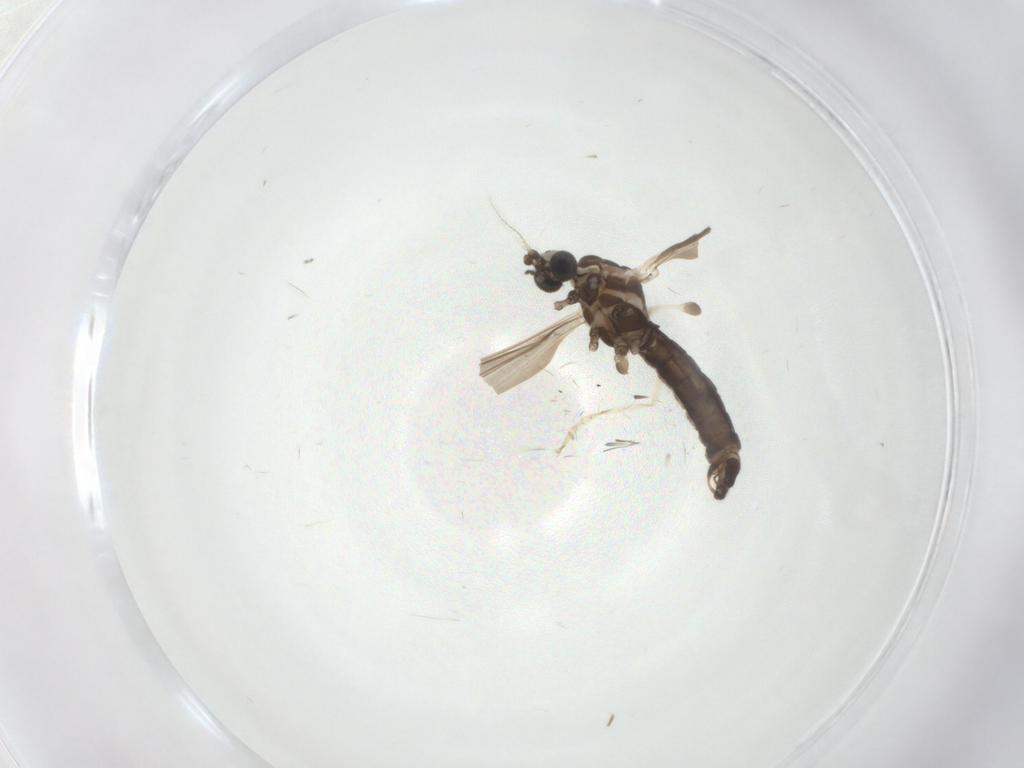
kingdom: Animalia
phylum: Arthropoda
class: Insecta
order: Diptera
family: Limoniidae
